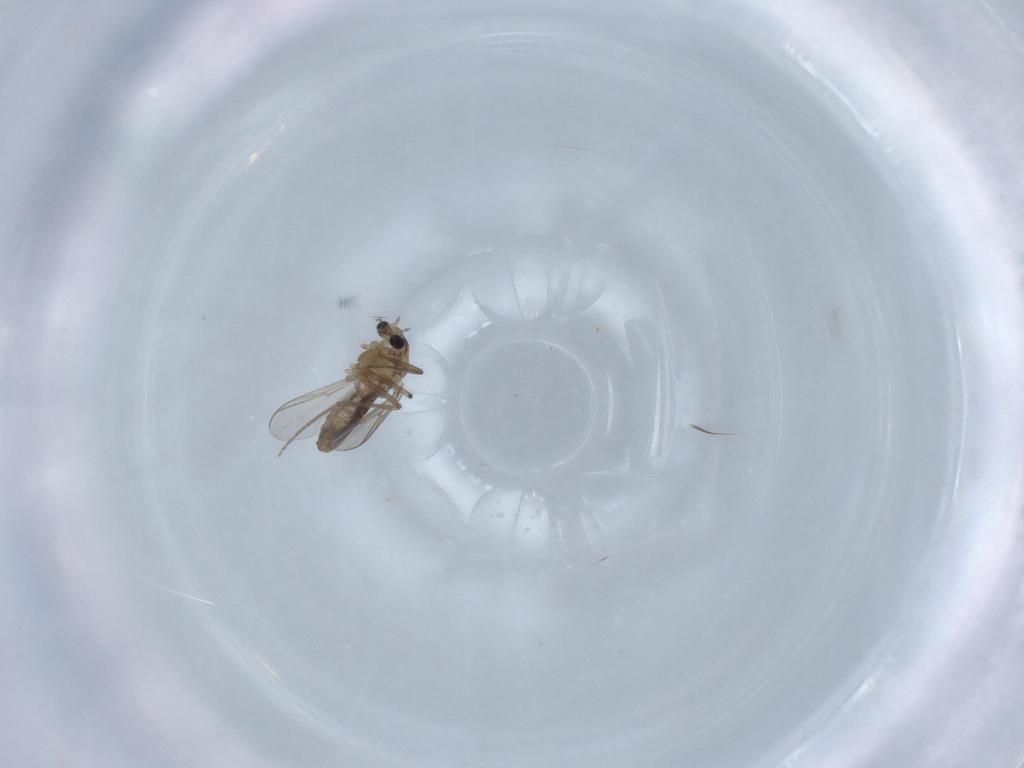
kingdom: Animalia
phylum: Arthropoda
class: Insecta
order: Diptera
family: Chironomidae
